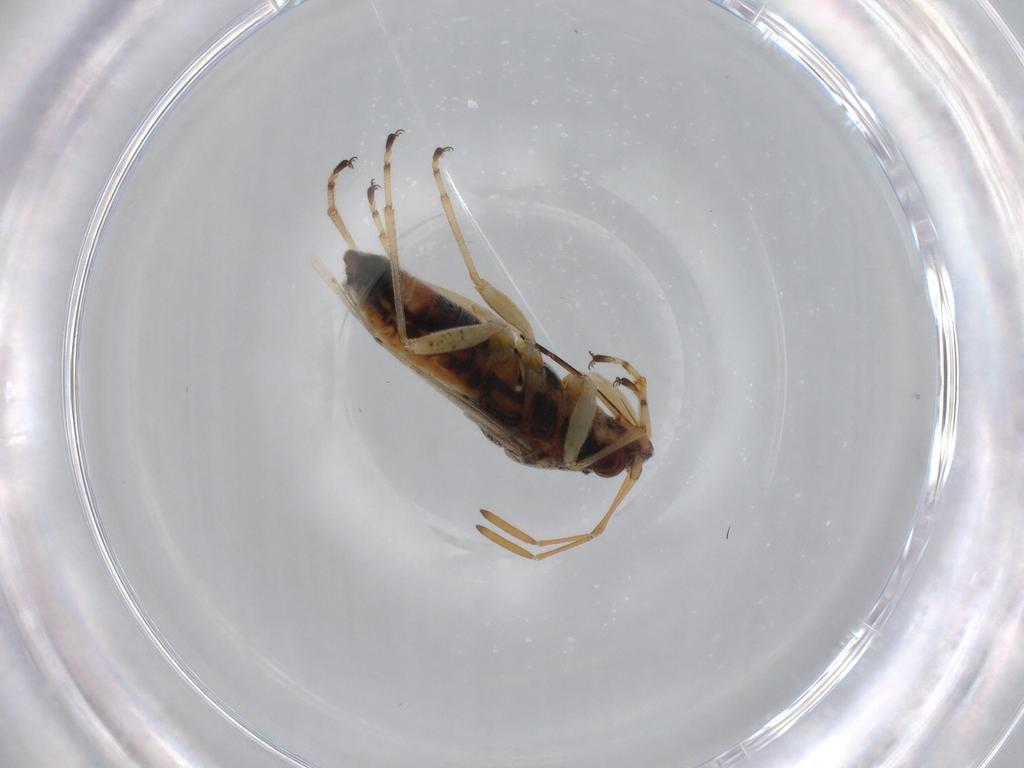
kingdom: Animalia
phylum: Arthropoda
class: Insecta
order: Hemiptera
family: Lygaeidae
